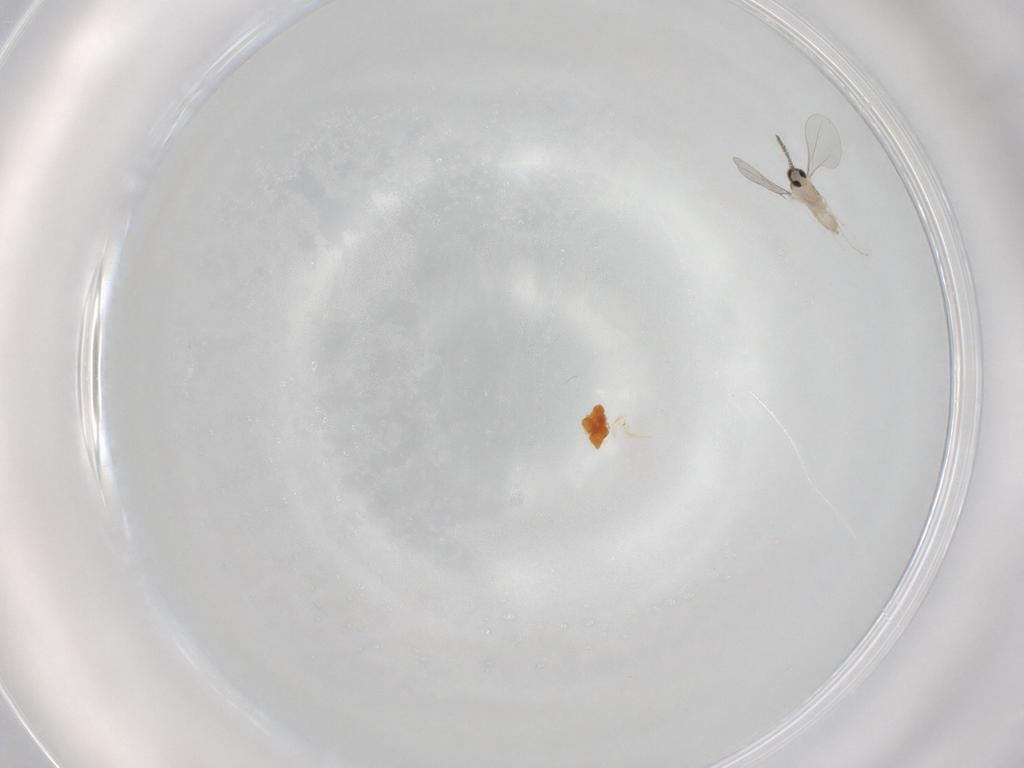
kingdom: Animalia
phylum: Arthropoda
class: Insecta
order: Diptera
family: Cecidomyiidae
